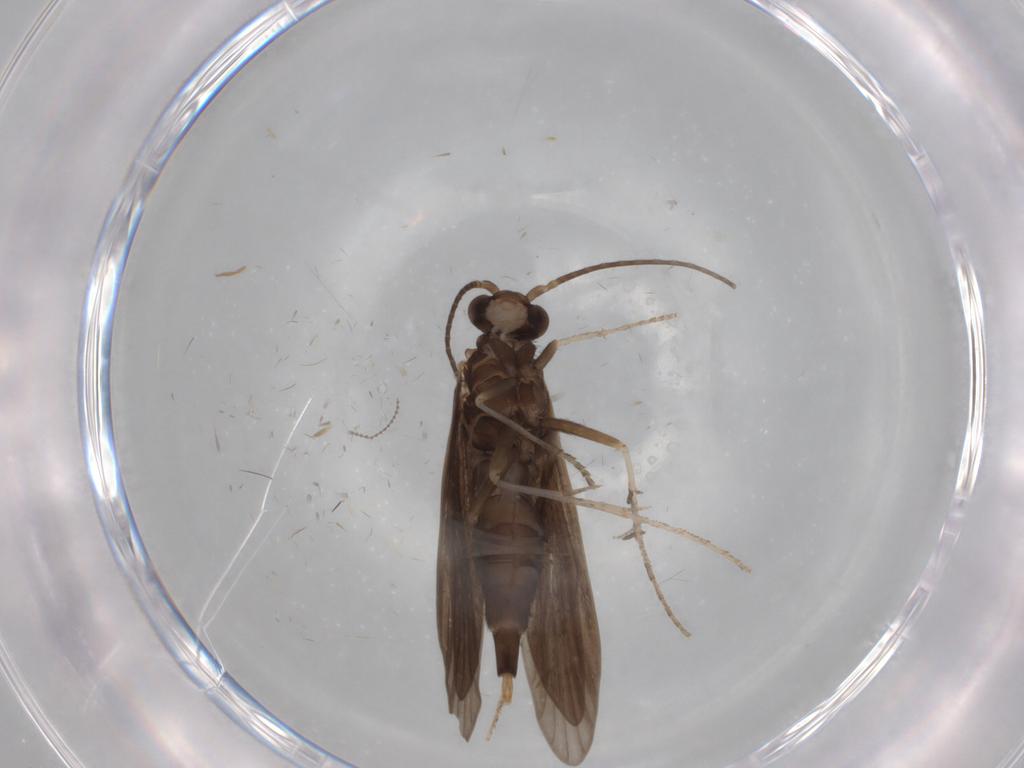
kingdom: Animalia
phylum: Arthropoda
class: Insecta
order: Trichoptera
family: Xiphocentronidae
